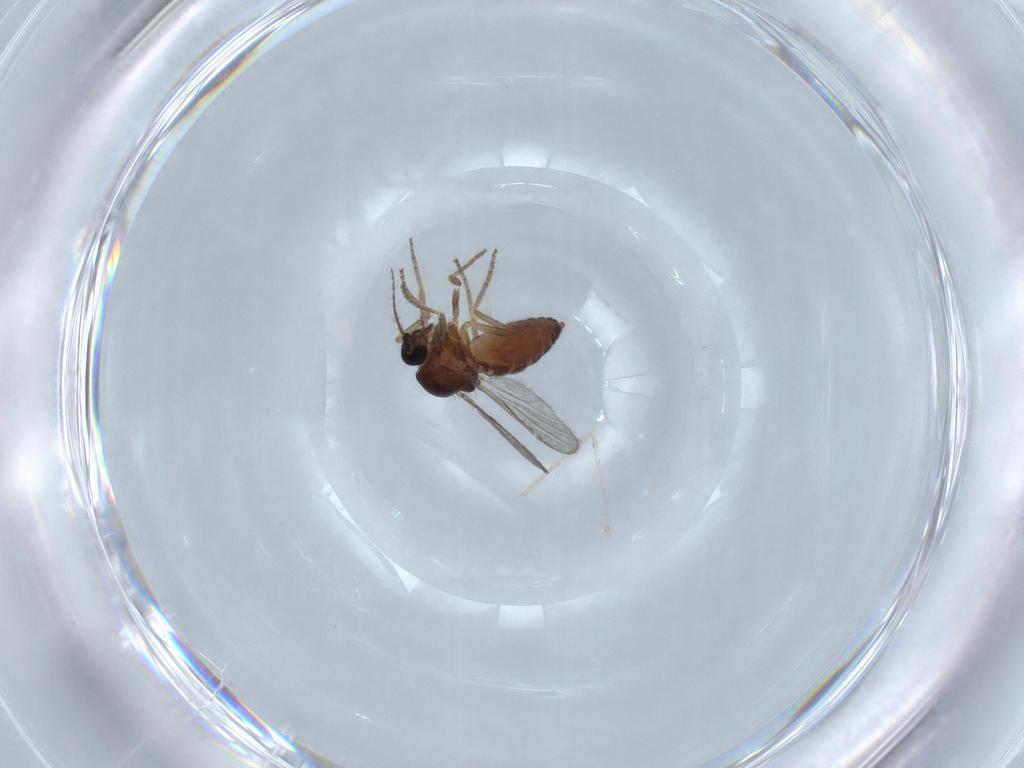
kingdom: Animalia
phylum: Arthropoda
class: Insecta
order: Diptera
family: Ceratopogonidae
